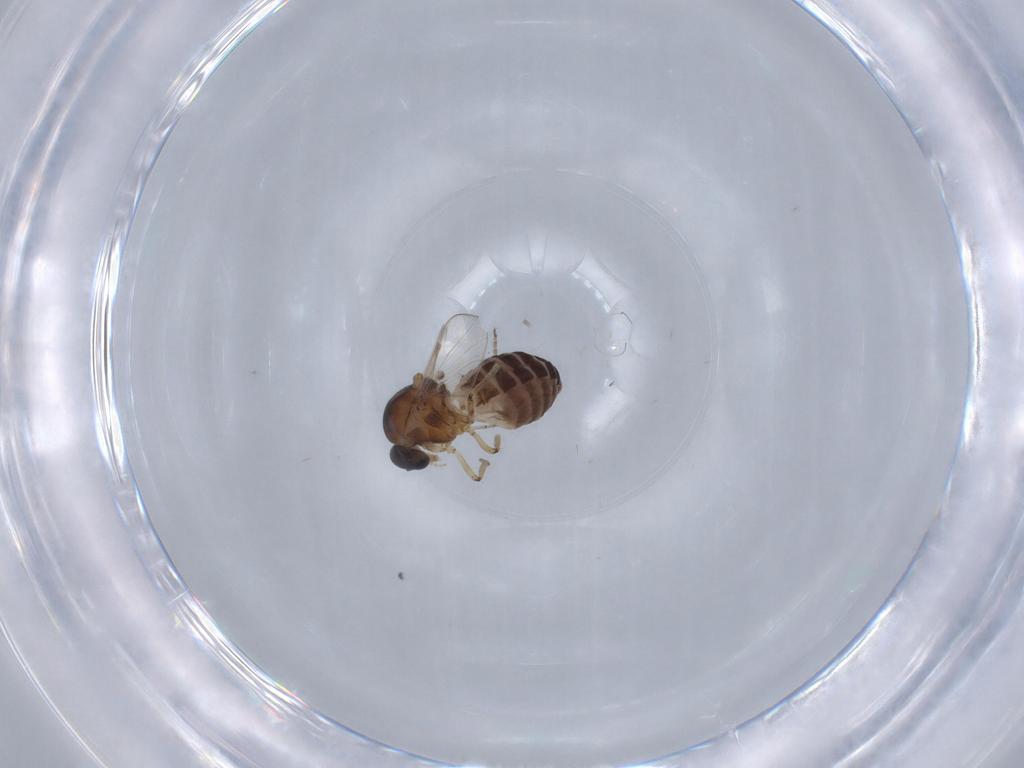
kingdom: Animalia
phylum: Arthropoda
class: Insecta
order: Diptera
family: Ceratopogonidae
